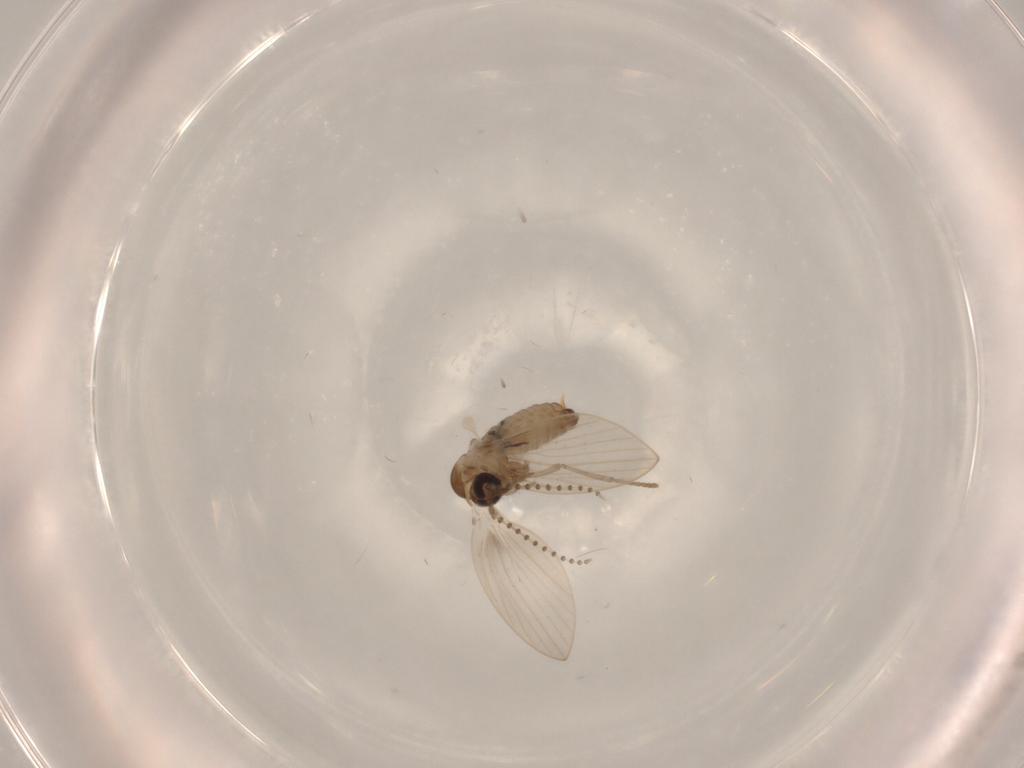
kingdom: Animalia
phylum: Arthropoda
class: Insecta
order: Diptera
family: Psychodidae
